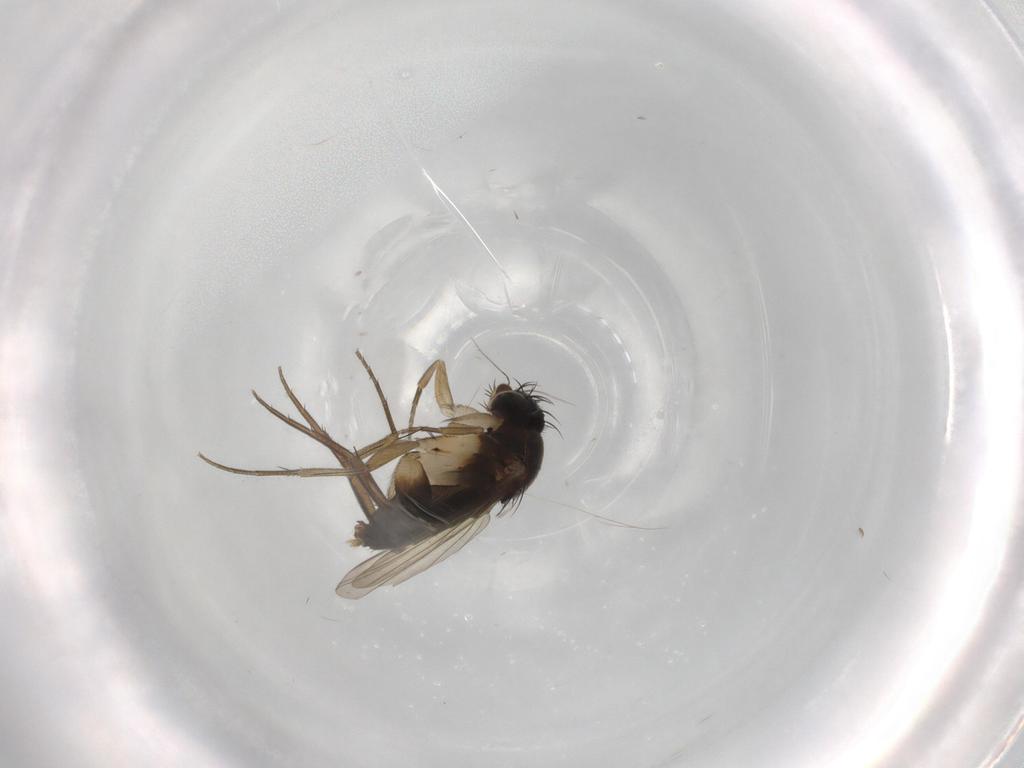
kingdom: Animalia
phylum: Arthropoda
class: Insecta
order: Diptera
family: Phoridae
